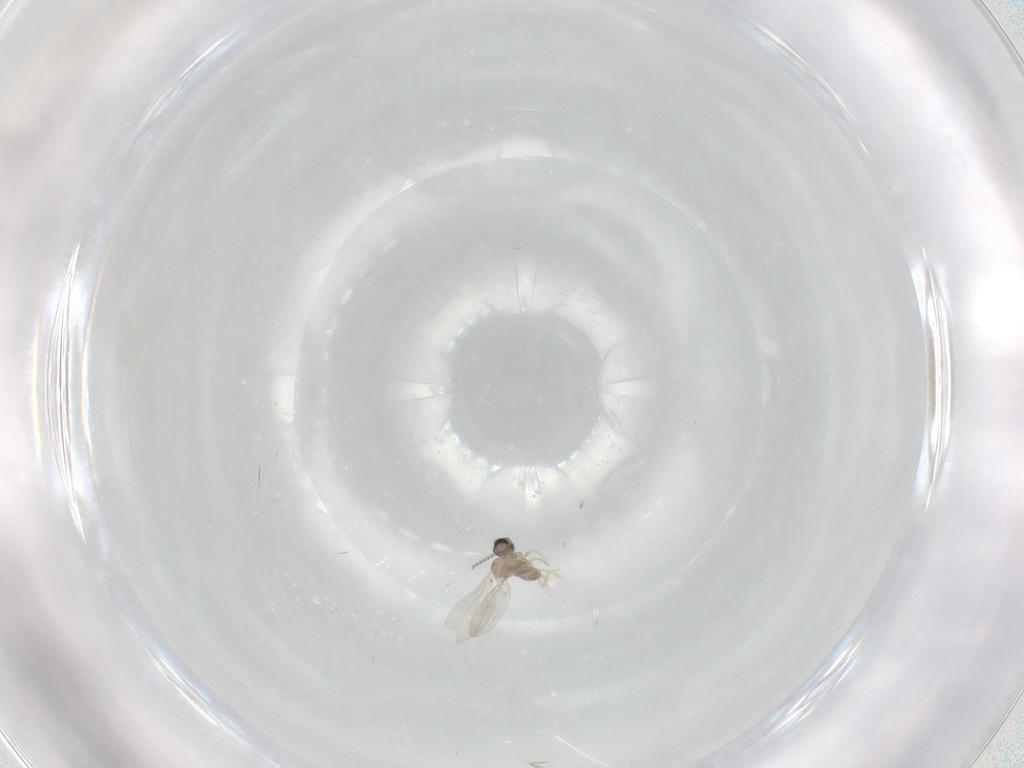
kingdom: Animalia
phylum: Arthropoda
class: Insecta
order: Diptera
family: Cecidomyiidae
